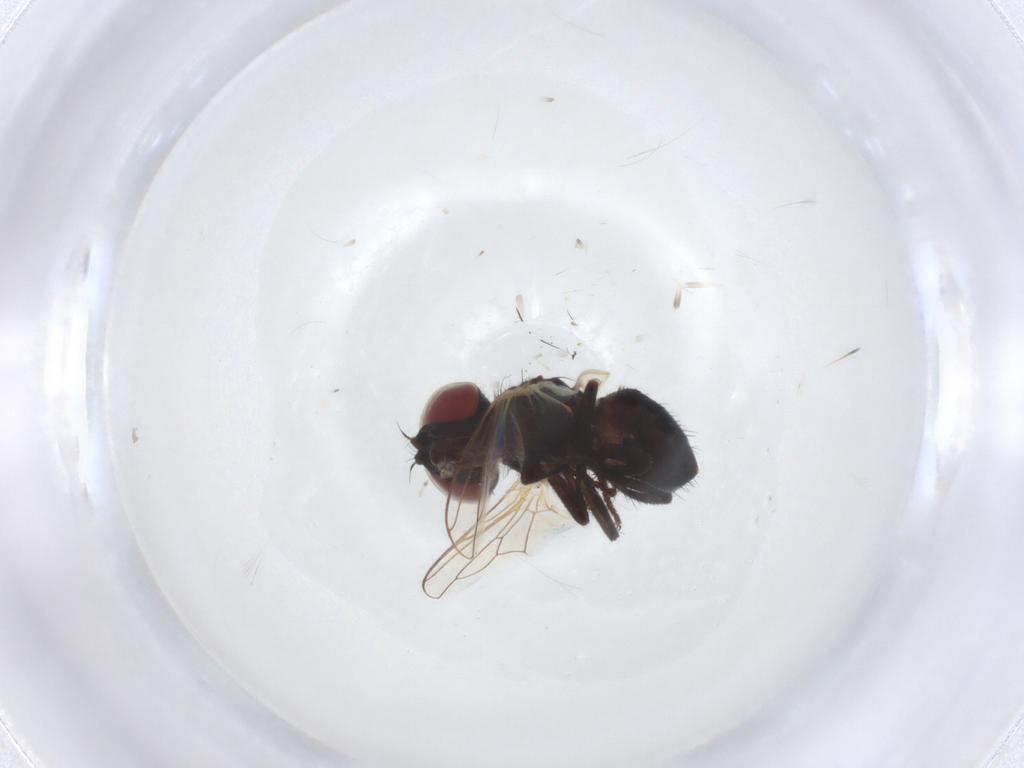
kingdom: Animalia
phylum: Arthropoda
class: Insecta
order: Diptera
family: Tachinidae
